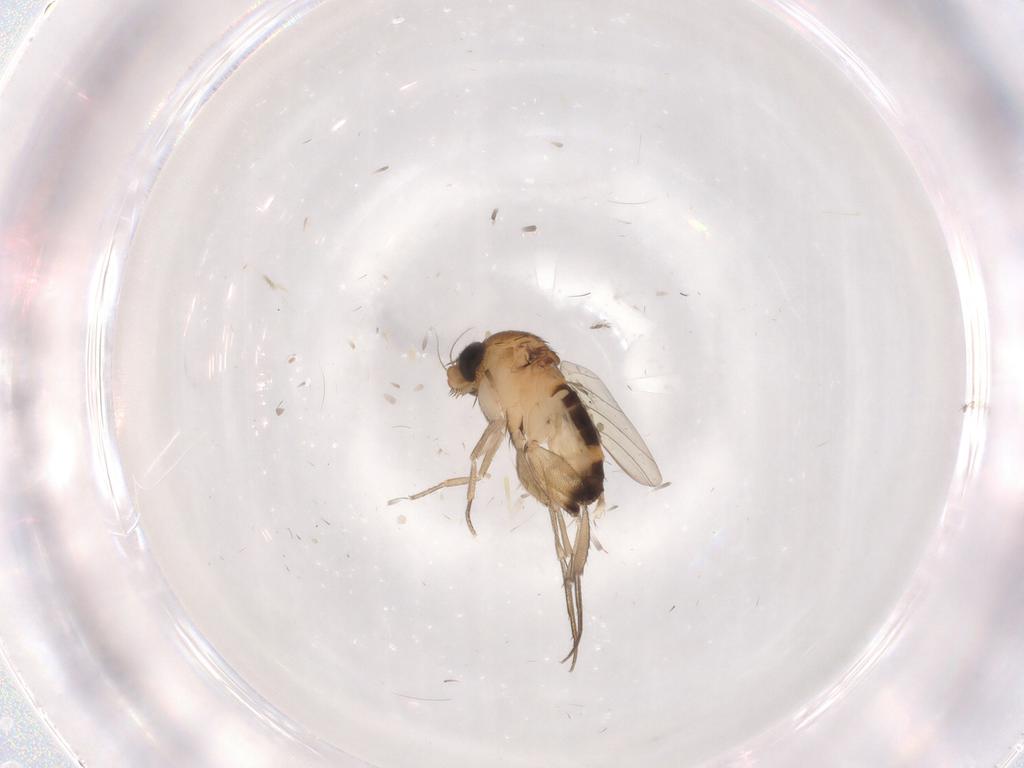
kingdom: Animalia
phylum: Arthropoda
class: Insecta
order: Diptera
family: Phoridae
